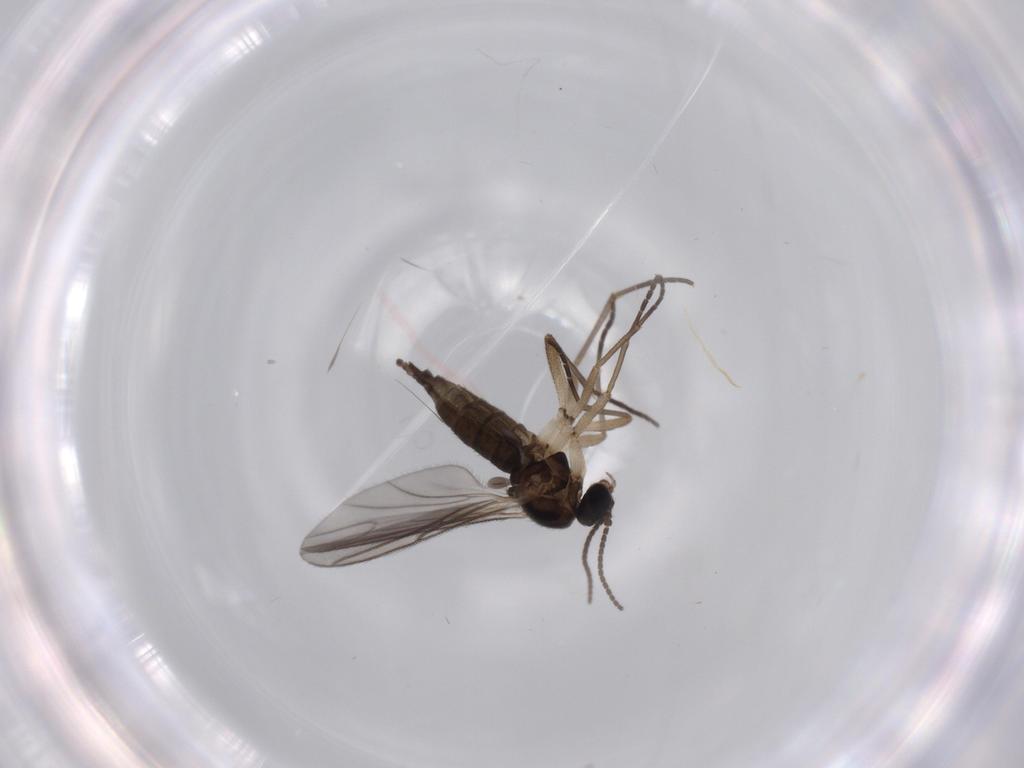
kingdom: Animalia
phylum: Arthropoda
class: Insecta
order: Diptera
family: Sciaridae
